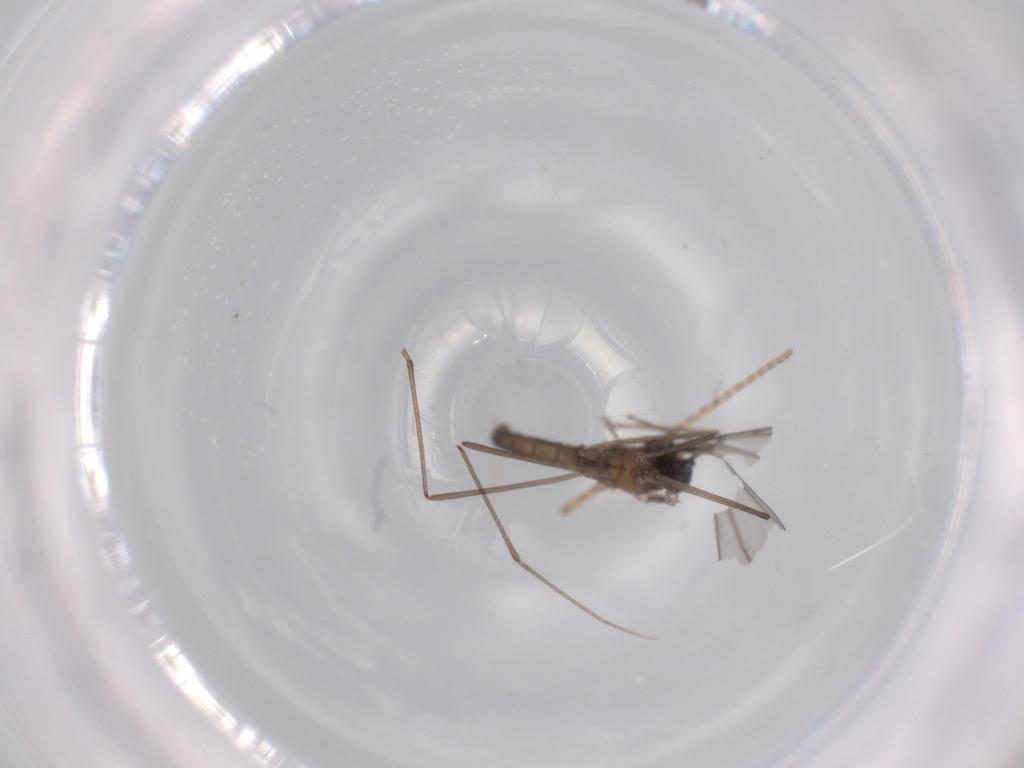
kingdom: Animalia
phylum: Arthropoda
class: Insecta
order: Diptera
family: Cecidomyiidae
